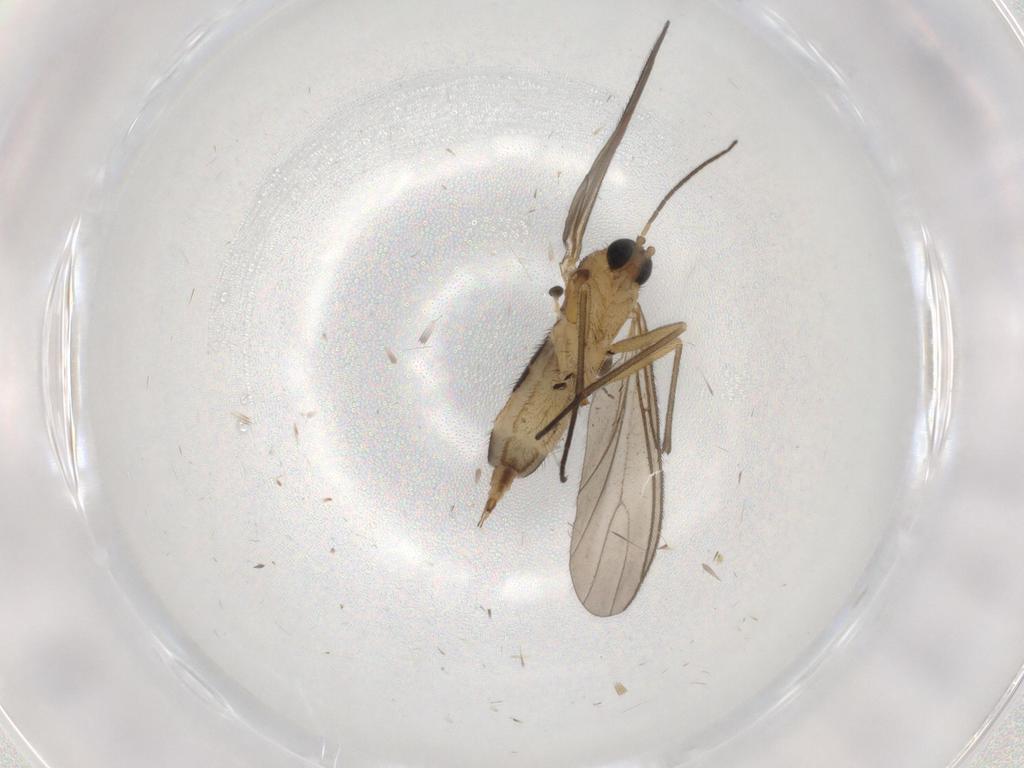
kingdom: Animalia
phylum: Arthropoda
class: Insecta
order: Diptera
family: Sciaridae
